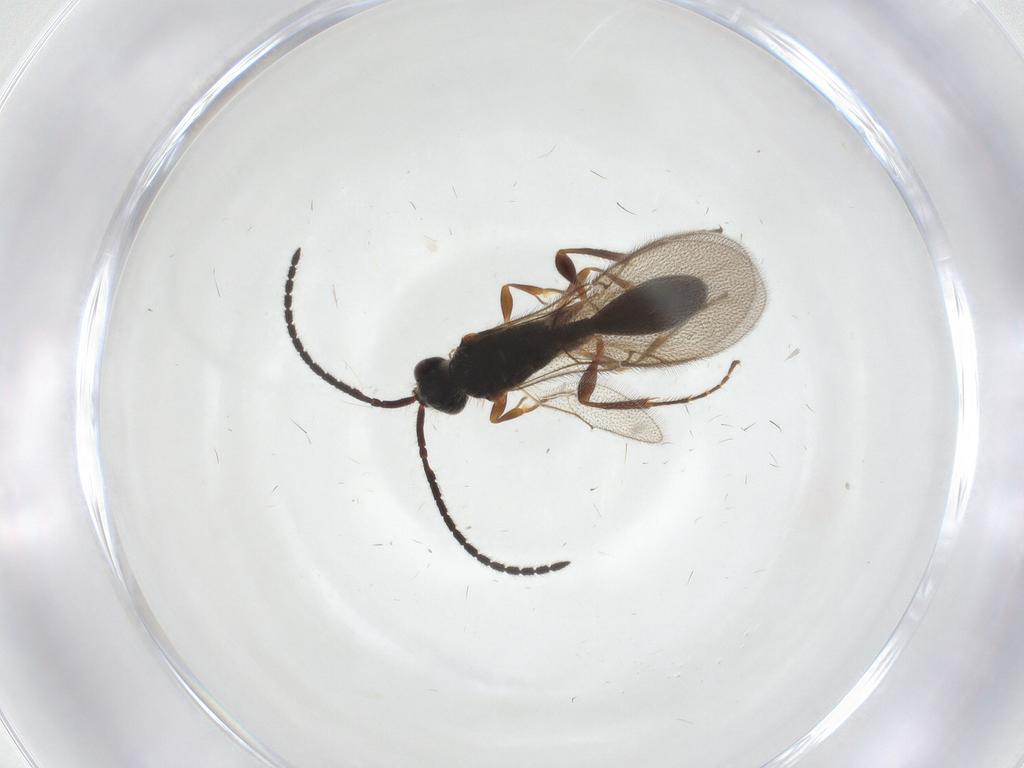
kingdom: Animalia
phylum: Arthropoda
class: Insecta
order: Hymenoptera
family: Diapriidae
